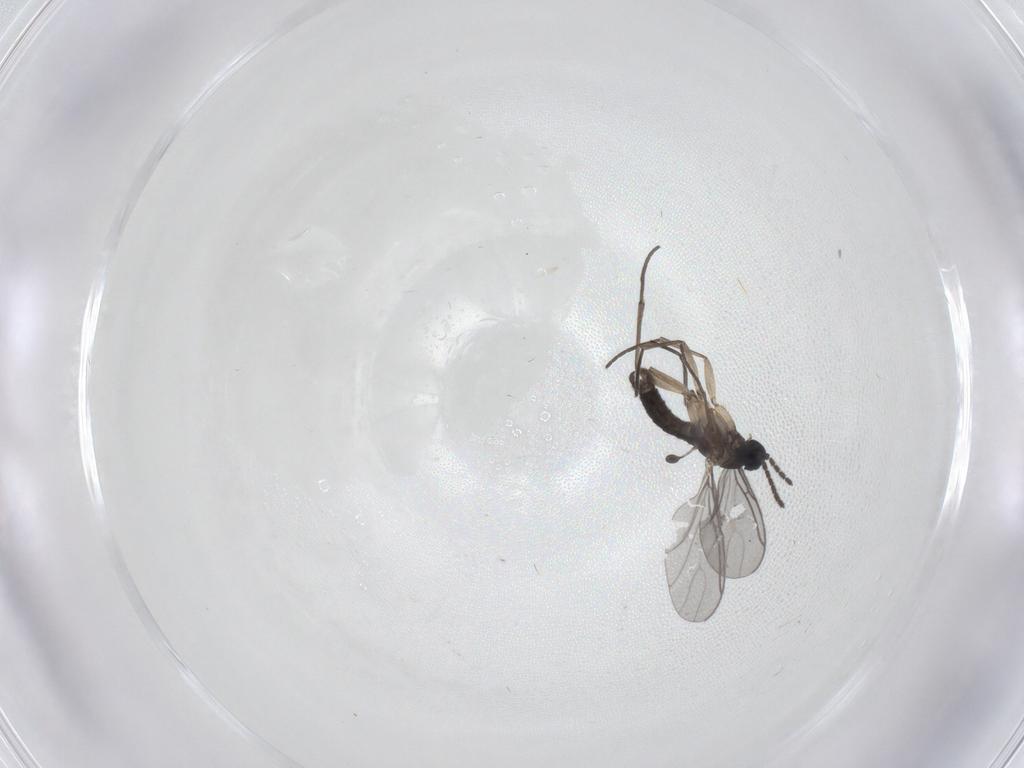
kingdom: Animalia
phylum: Arthropoda
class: Insecta
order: Diptera
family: Sciaridae
